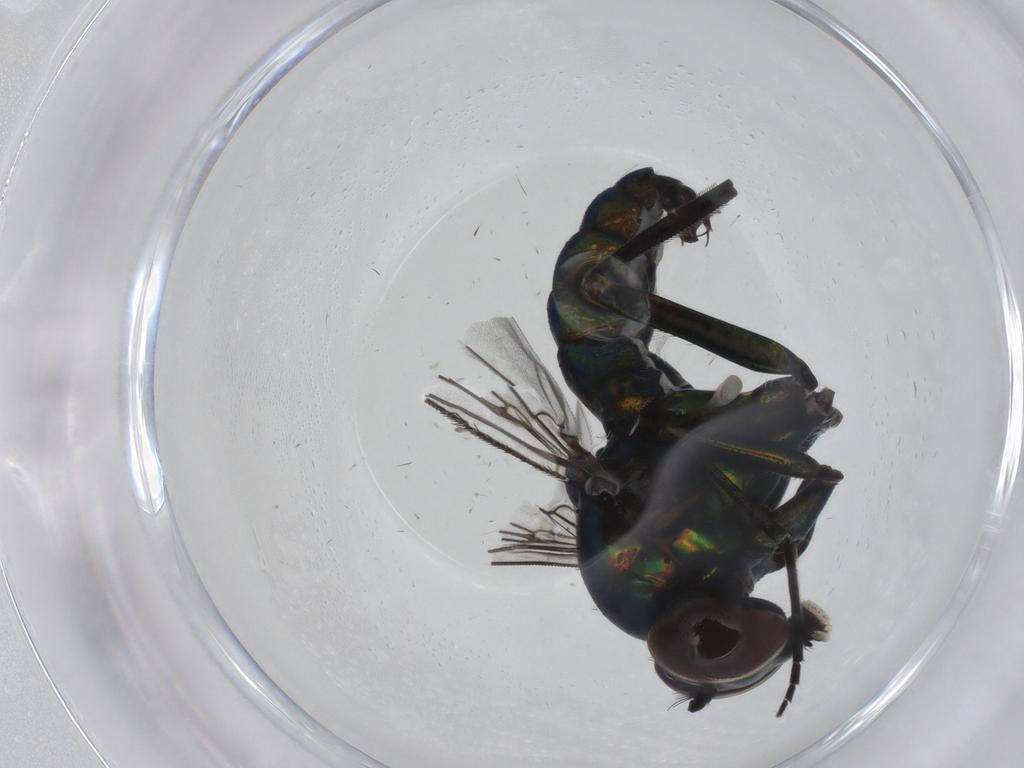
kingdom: Animalia
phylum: Arthropoda
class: Insecta
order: Diptera
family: Dolichopodidae
